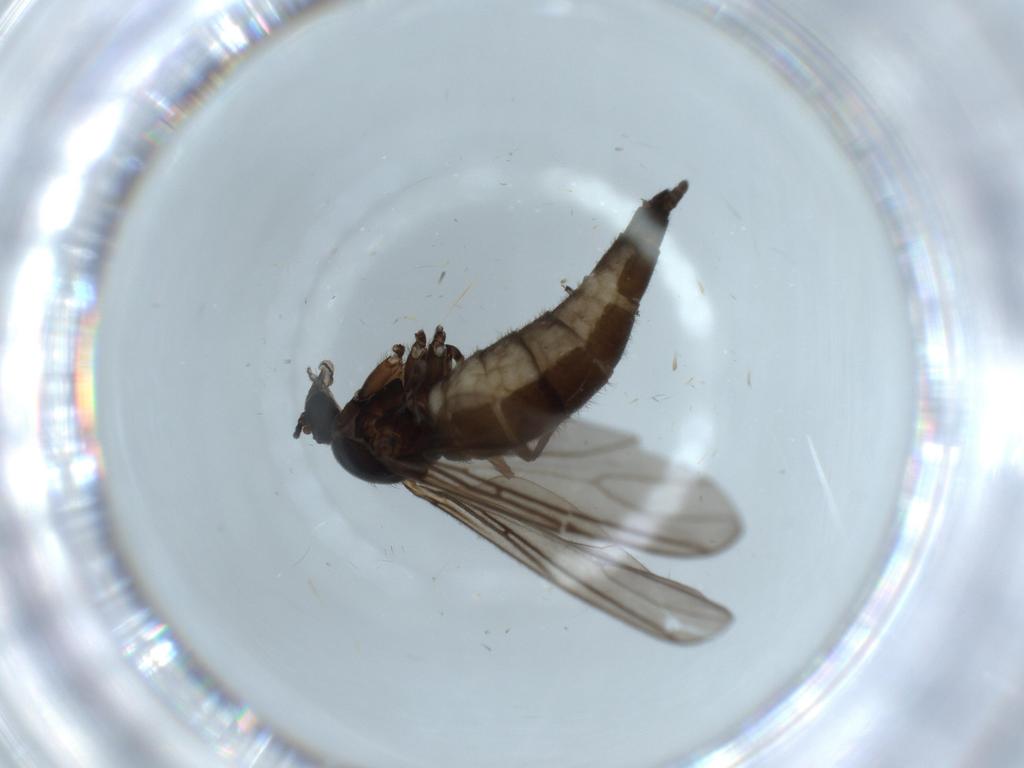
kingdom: Animalia
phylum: Arthropoda
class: Insecta
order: Diptera
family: Sciaridae
